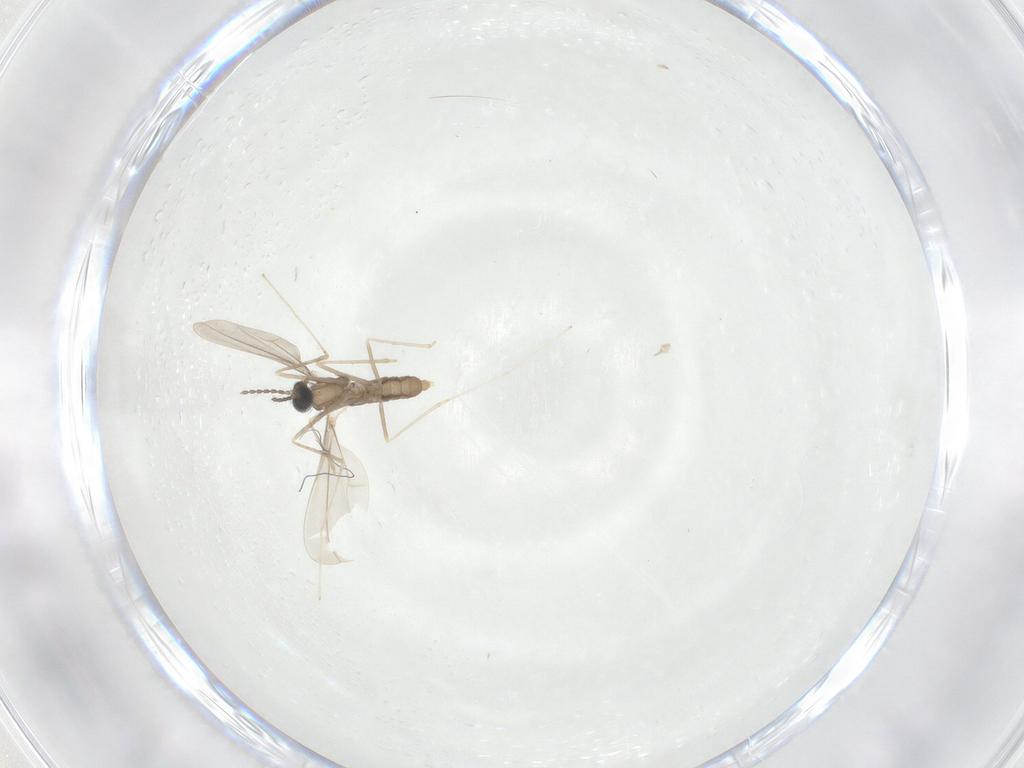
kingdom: Animalia
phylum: Arthropoda
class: Insecta
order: Diptera
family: Cecidomyiidae
